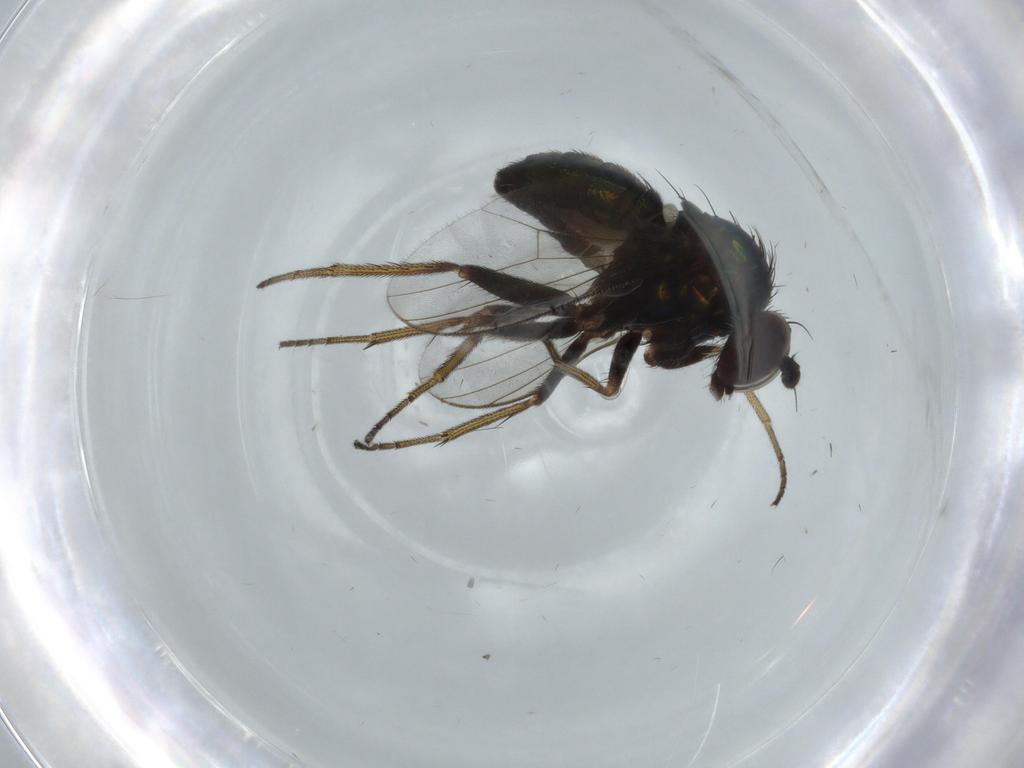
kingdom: Animalia
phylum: Arthropoda
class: Insecta
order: Diptera
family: Dolichopodidae
